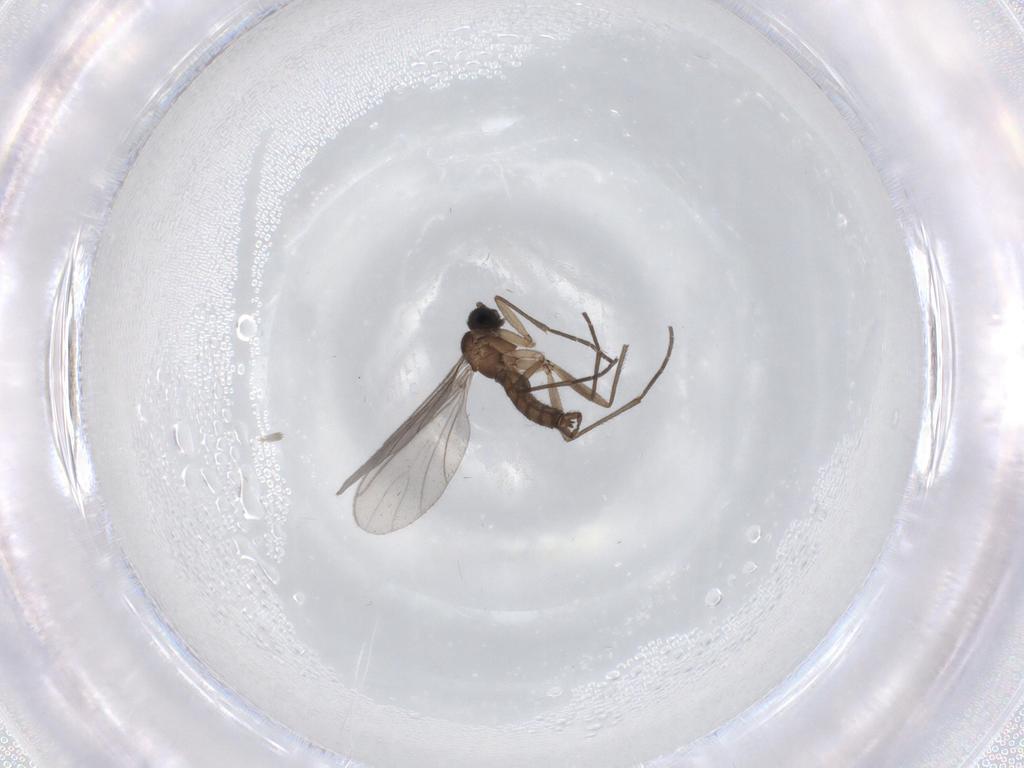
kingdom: Animalia
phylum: Arthropoda
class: Insecta
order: Diptera
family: Sciaridae
